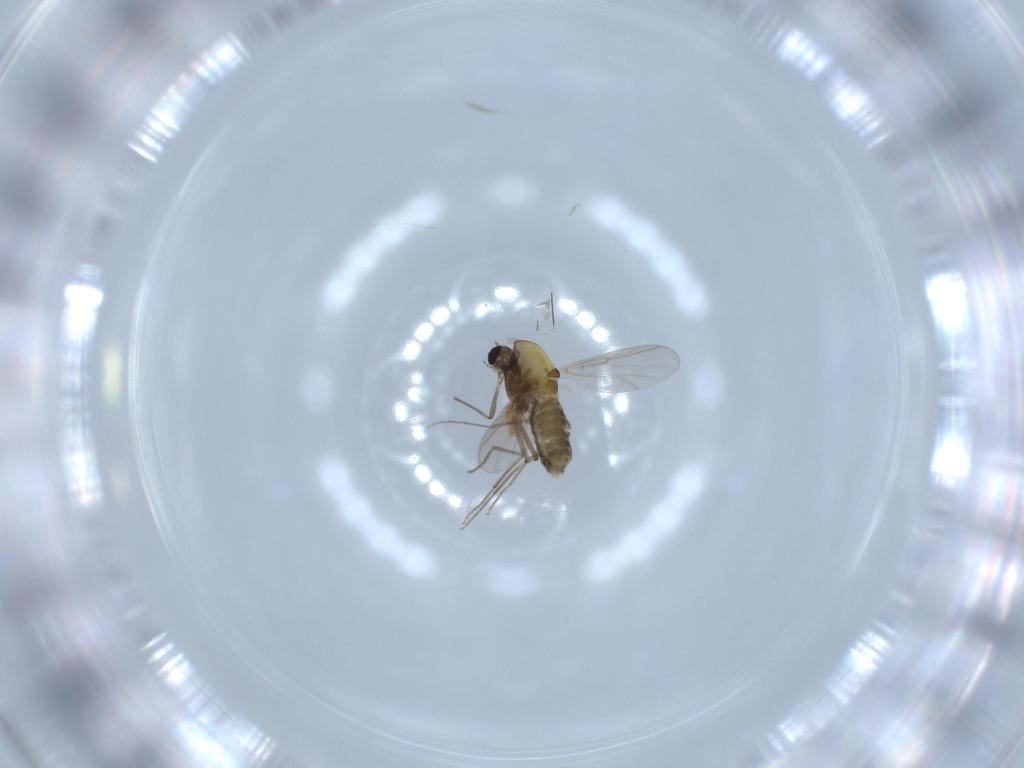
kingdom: Animalia
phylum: Arthropoda
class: Insecta
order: Diptera
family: Chironomidae
